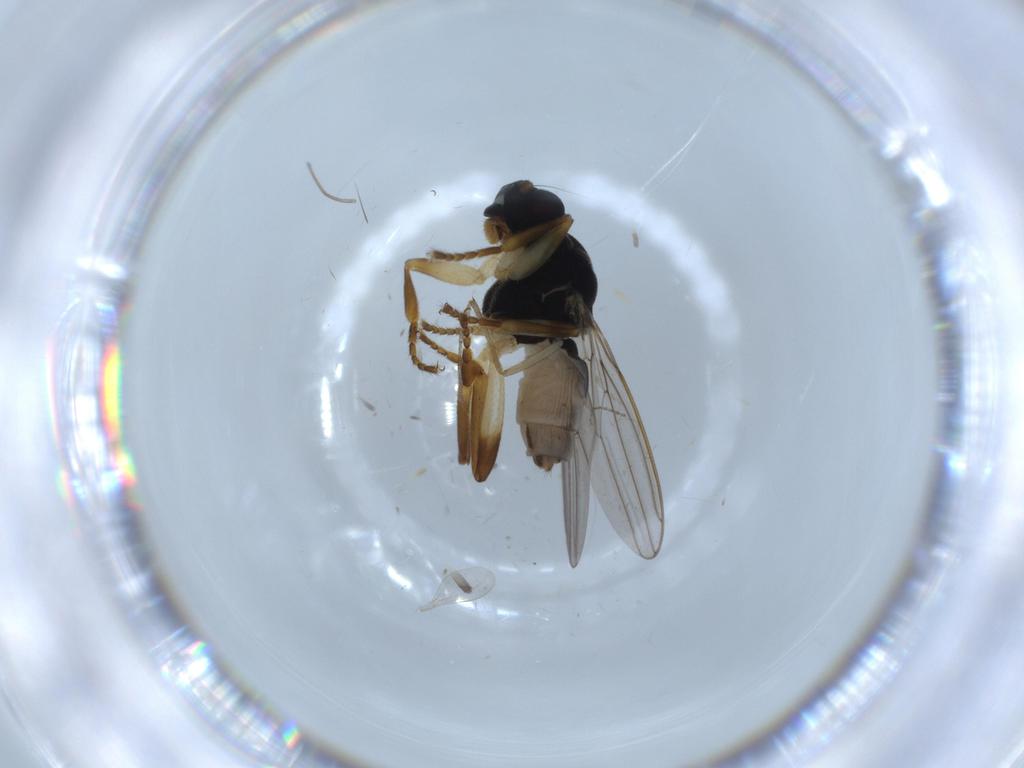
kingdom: Animalia
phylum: Arthropoda
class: Insecta
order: Diptera
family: Sphaeroceridae
